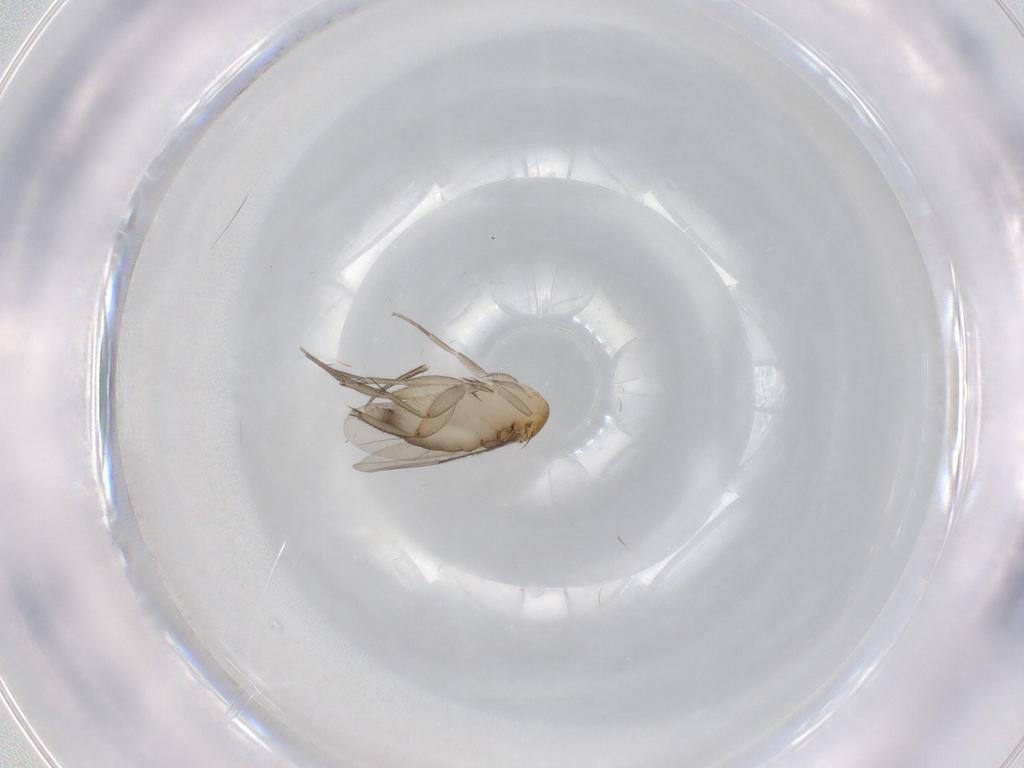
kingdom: Animalia
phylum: Arthropoda
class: Insecta
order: Diptera
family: Phoridae
